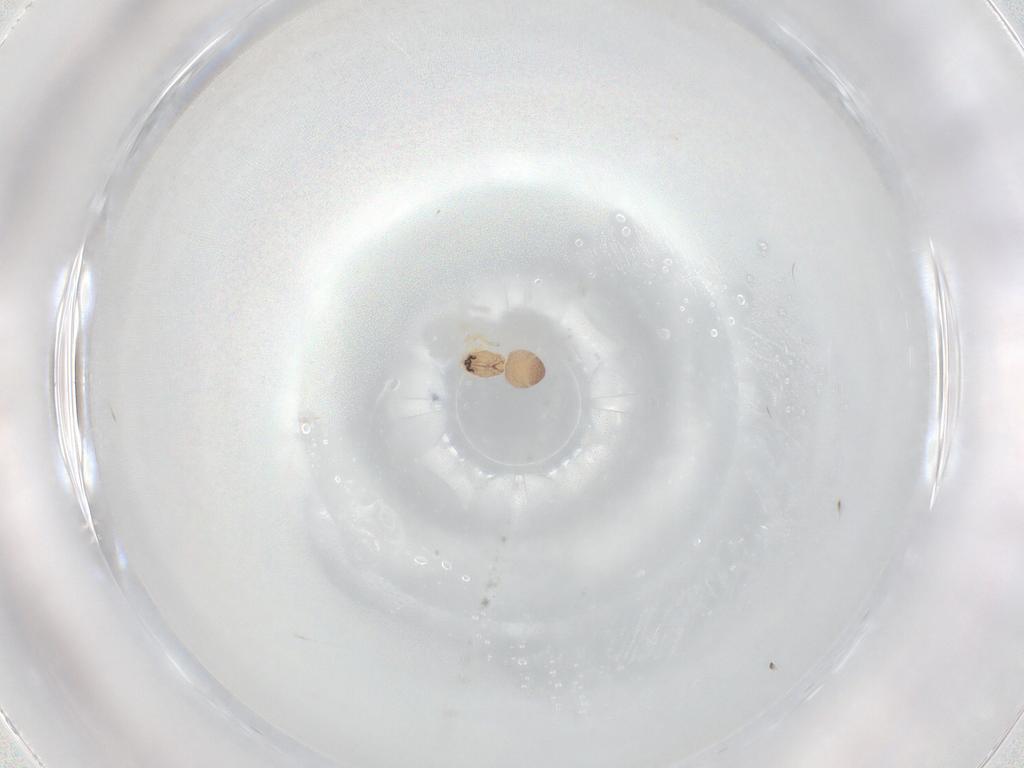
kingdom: Animalia
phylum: Arthropoda
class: Arachnida
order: Araneae
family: Dictynidae
